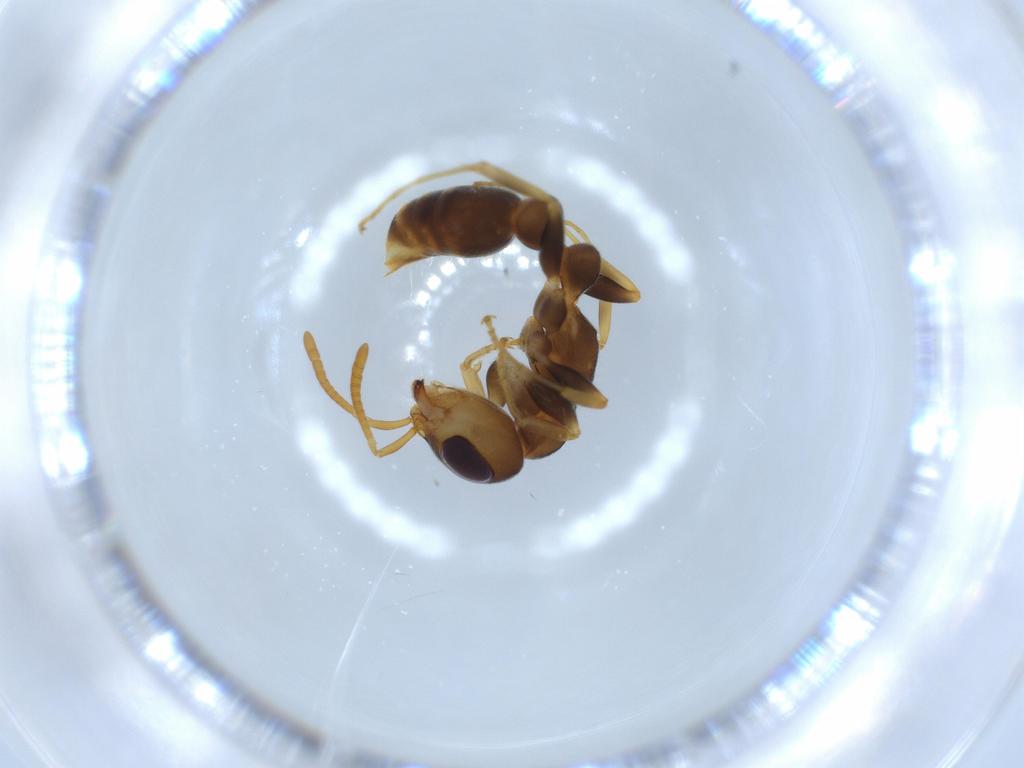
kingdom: Animalia
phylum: Arthropoda
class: Insecta
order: Hymenoptera
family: Formicidae
